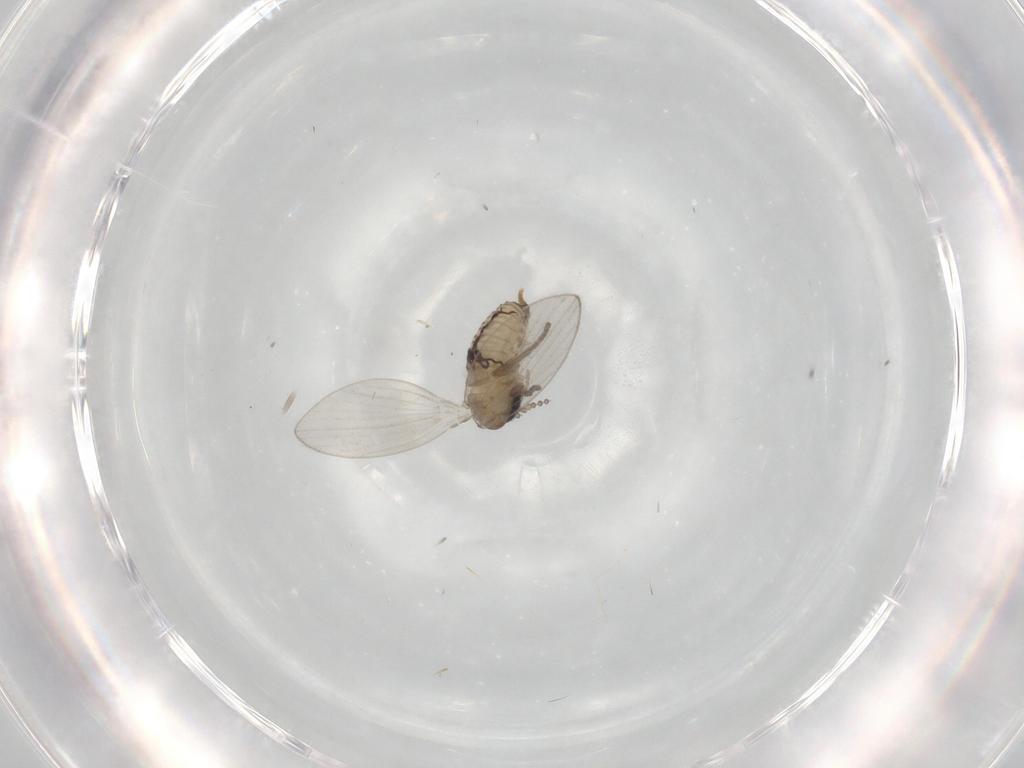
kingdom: Animalia
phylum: Arthropoda
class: Insecta
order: Diptera
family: Psychodidae
